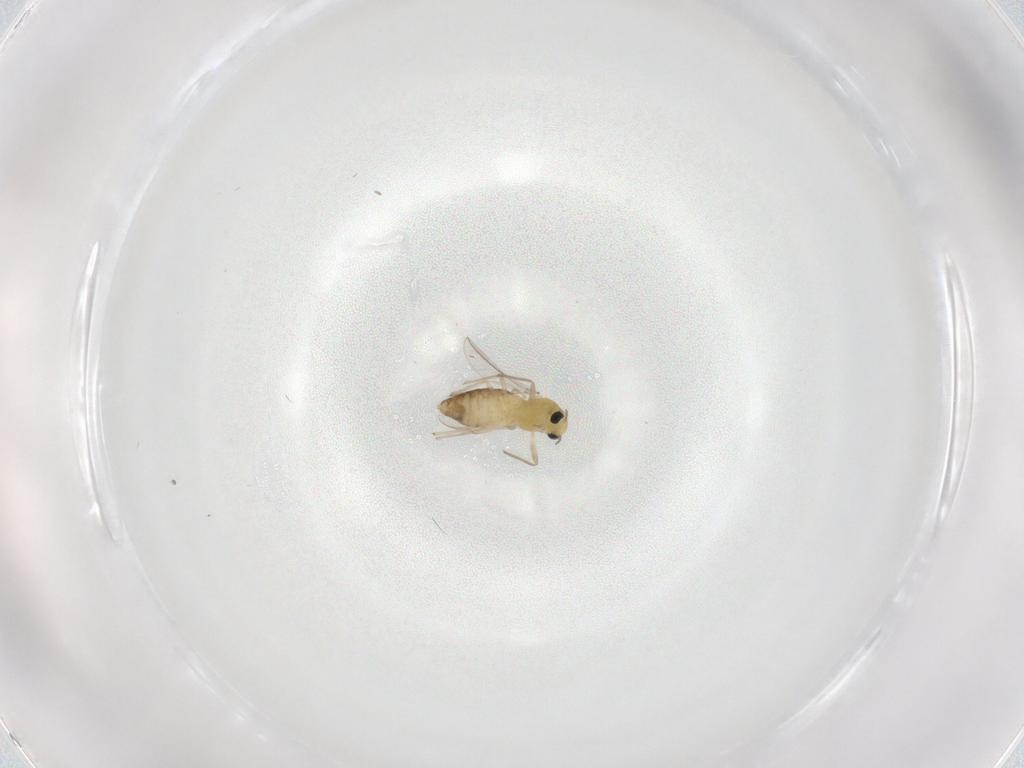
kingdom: Animalia
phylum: Arthropoda
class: Insecta
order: Diptera
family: Chironomidae
